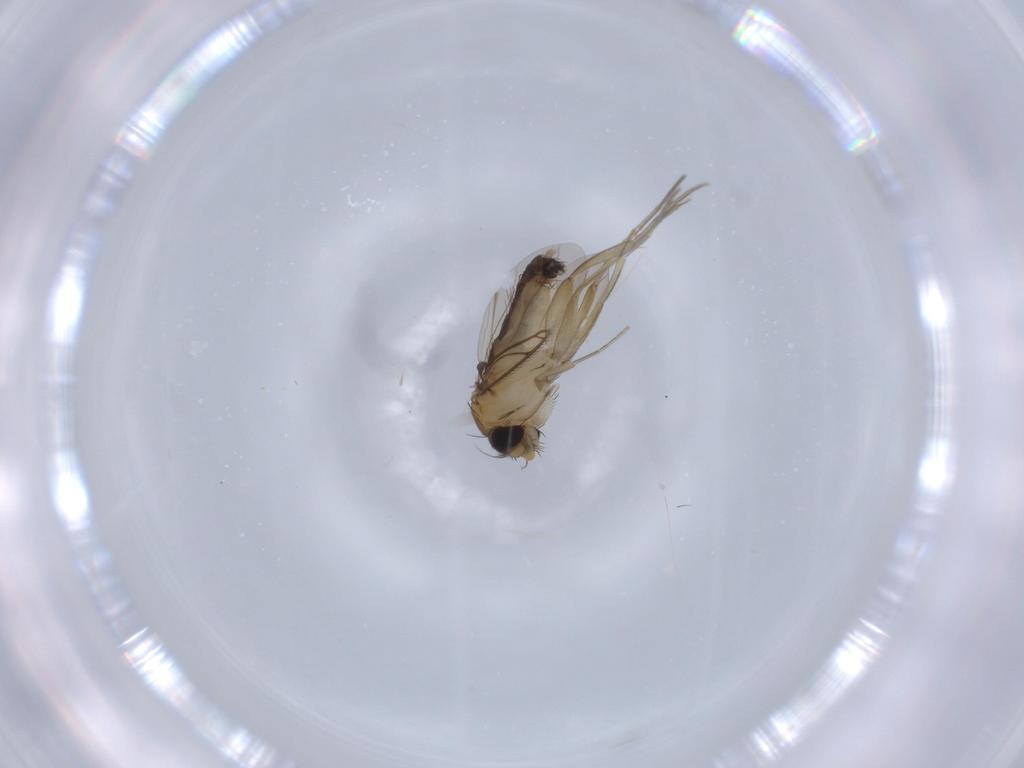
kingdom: Animalia
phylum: Arthropoda
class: Insecta
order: Diptera
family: Phoridae
